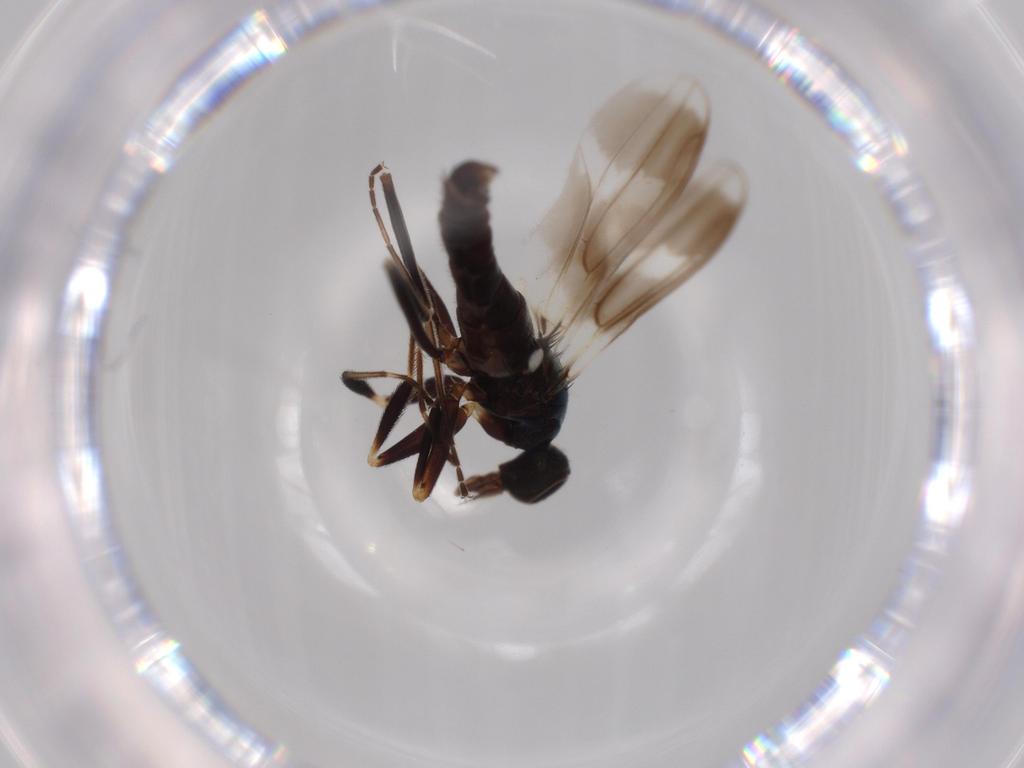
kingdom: Animalia
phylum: Arthropoda
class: Insecta
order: Diptera
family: Hybotidae
